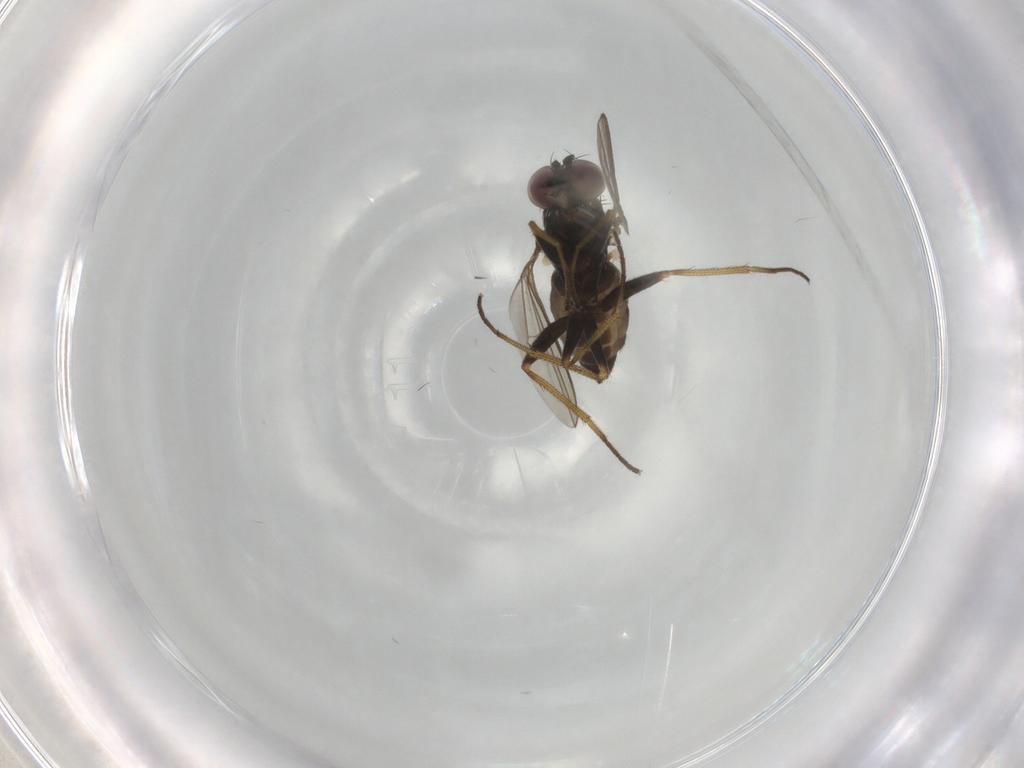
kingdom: Animalia
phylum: Arthropoda
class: Insecta
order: Diptera
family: Dolichopodidae
